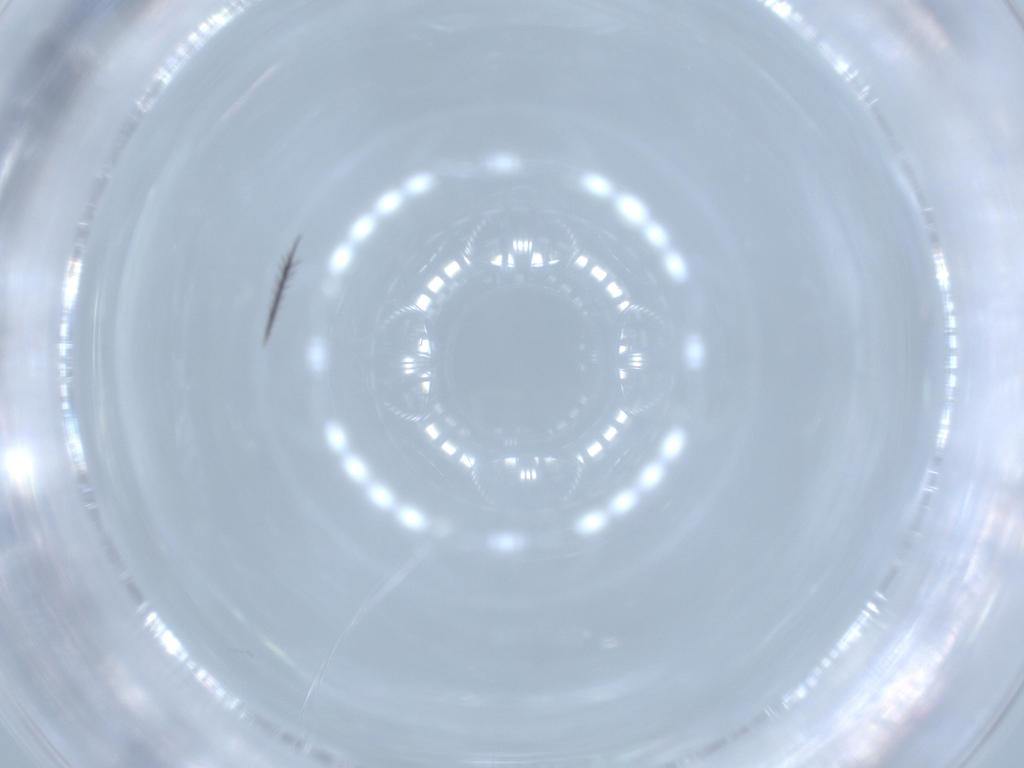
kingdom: Animalia
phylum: Arthropoda
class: Insecta
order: Diptera
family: Cecidomyiidae
